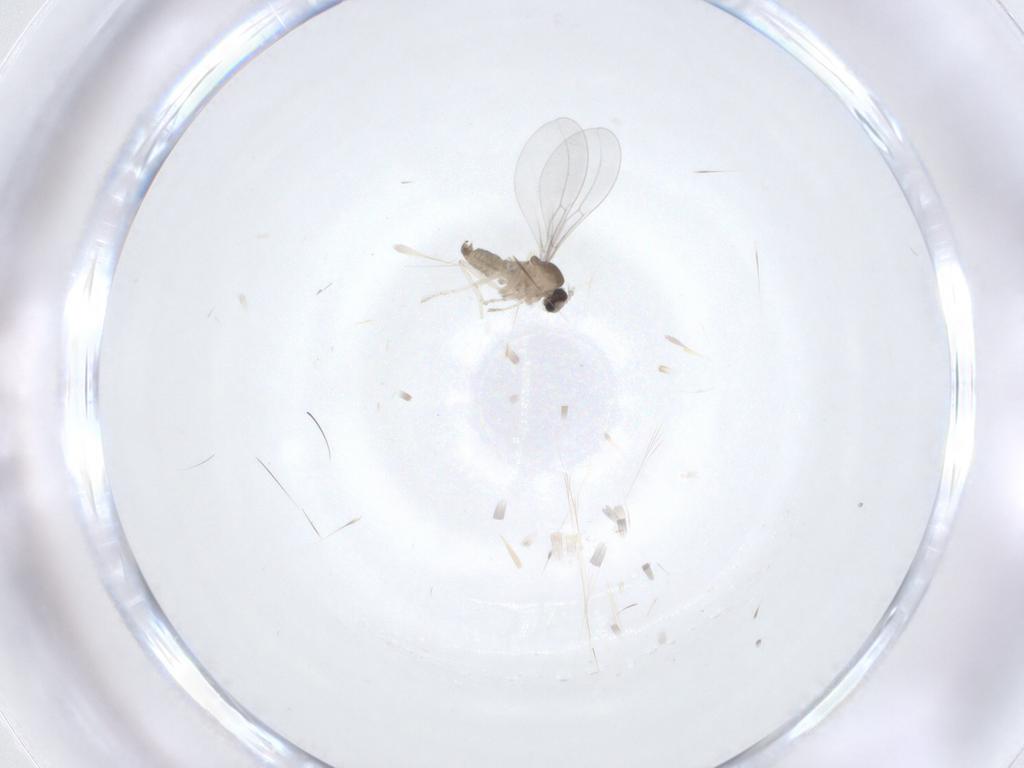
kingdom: Animalia
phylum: Arthropoda
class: Insecta
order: Diptera
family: Cecidomyiidae
